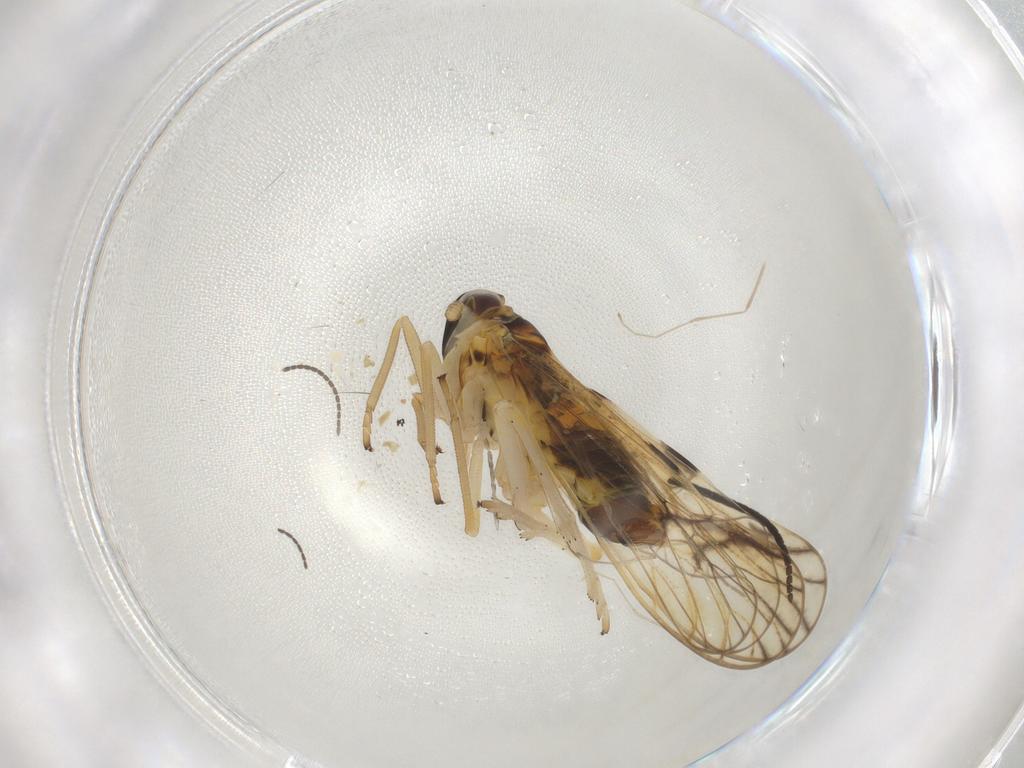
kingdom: Animalia
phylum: Arthropoda
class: Insecta
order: Hemiptera
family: Delphacidae
